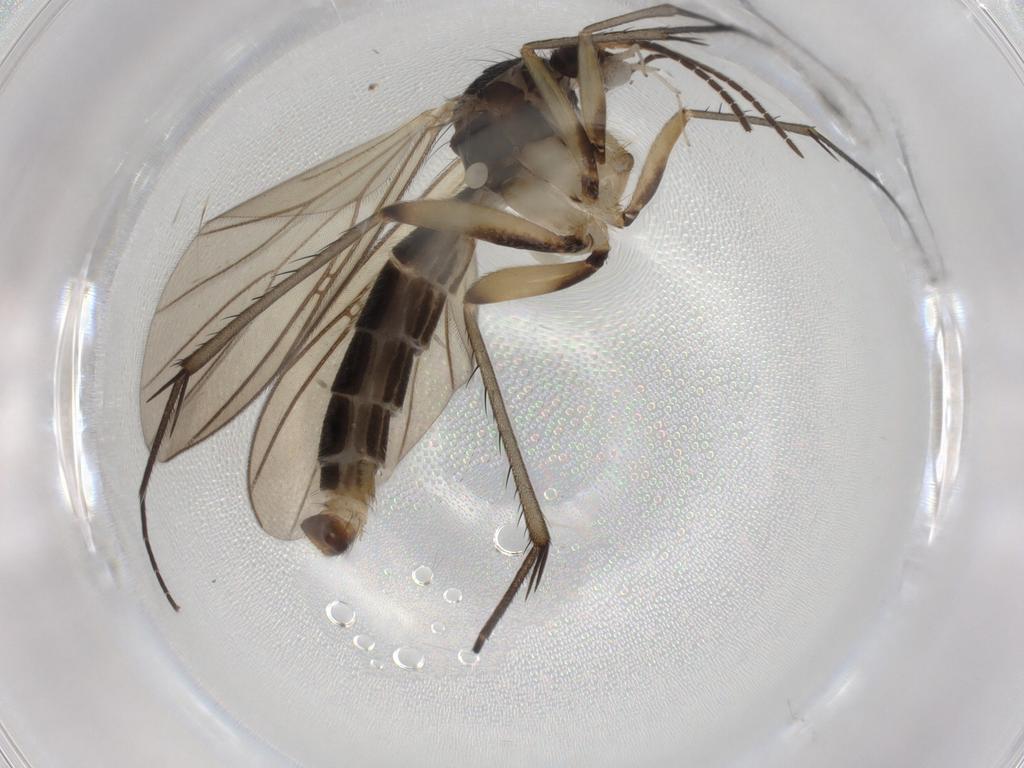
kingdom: Animalia
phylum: Arthropoda
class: Insecta
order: Diptera
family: Mycetophilidae
